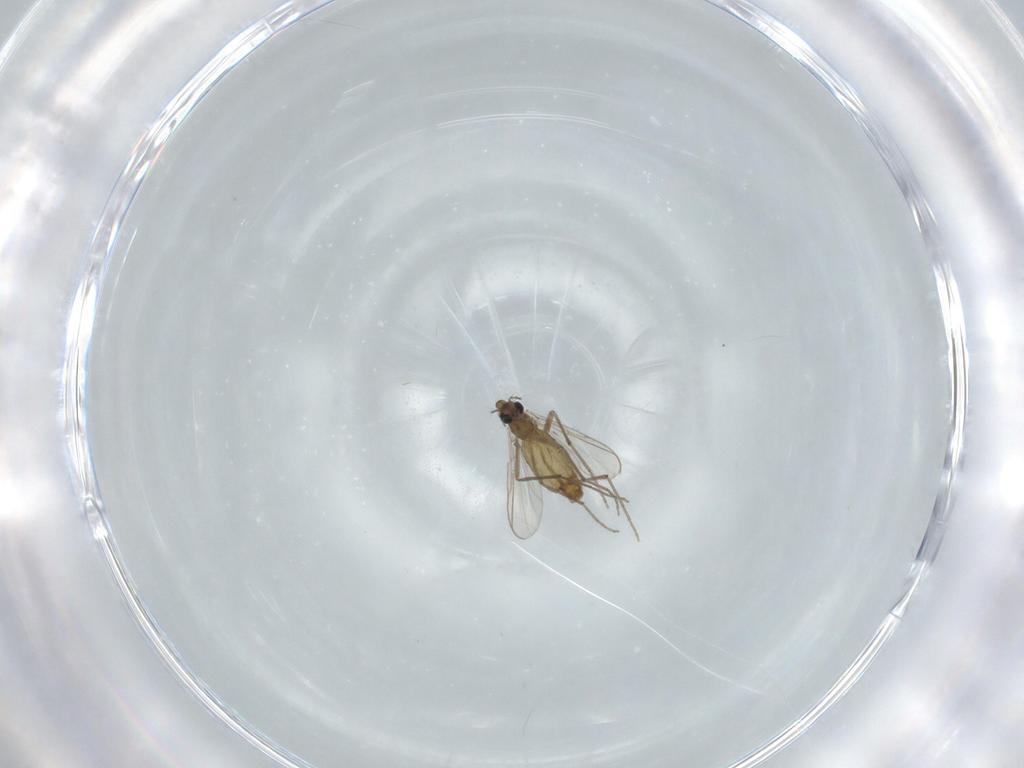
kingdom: Animalia
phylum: Arthropoda
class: Insecta
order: Diptera
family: Chironomidae
